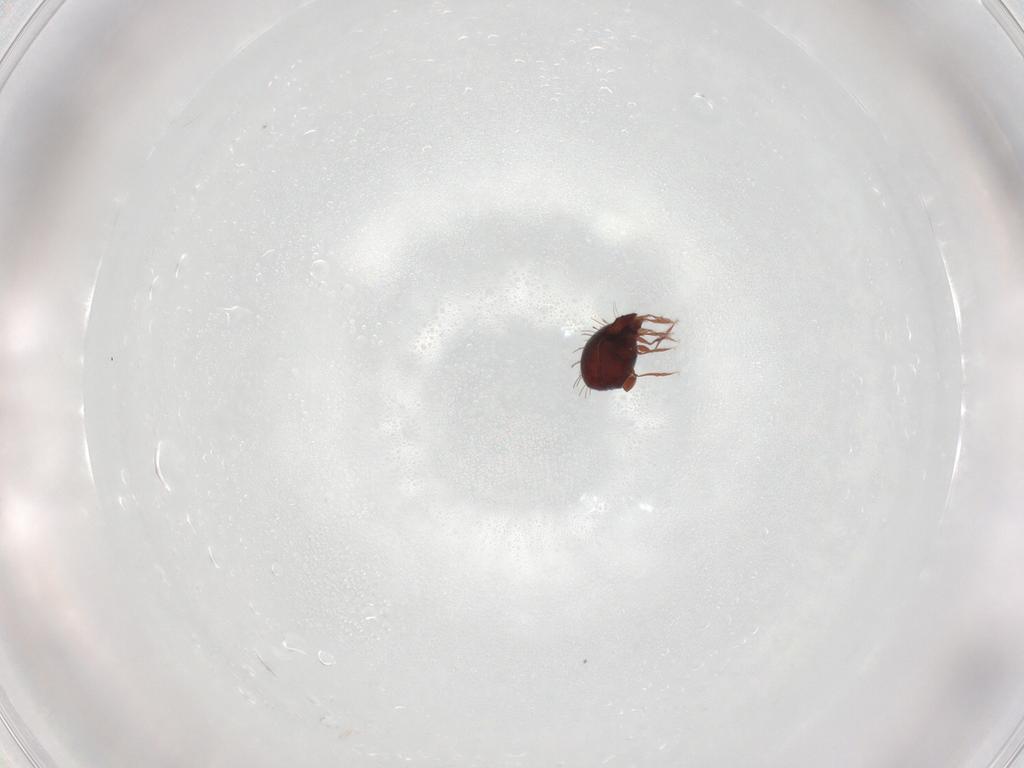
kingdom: Animalia
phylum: Arthropoda
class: Arachnida
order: Sarcoptiformes
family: Caloppiidae
